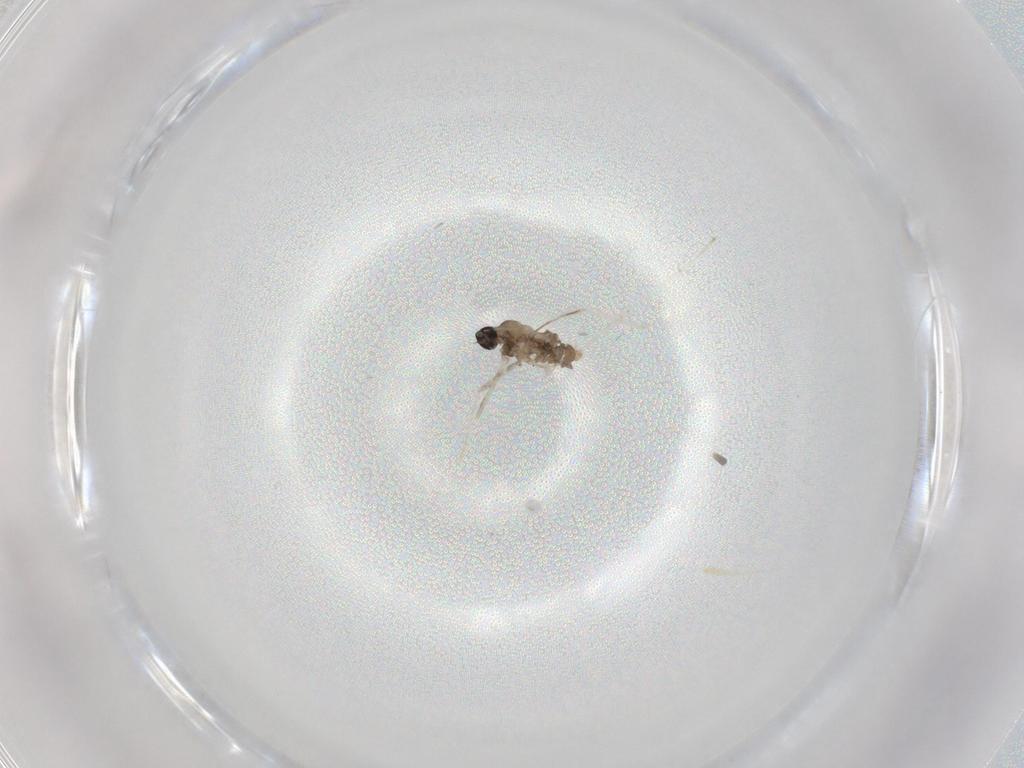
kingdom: Animalia
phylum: Arthropoda
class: Insecta
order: Diptera
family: Cecidomyiidae
